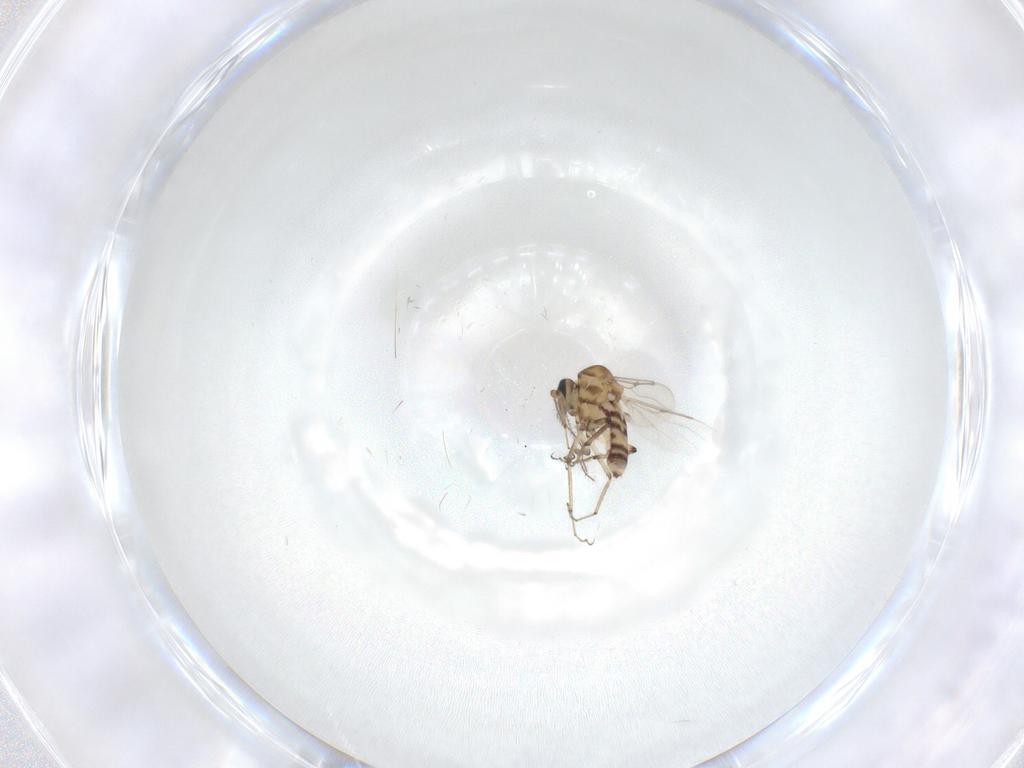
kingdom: Animalia
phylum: Arthropoda
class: Insecta
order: Diptera
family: Ceratopogonidae
